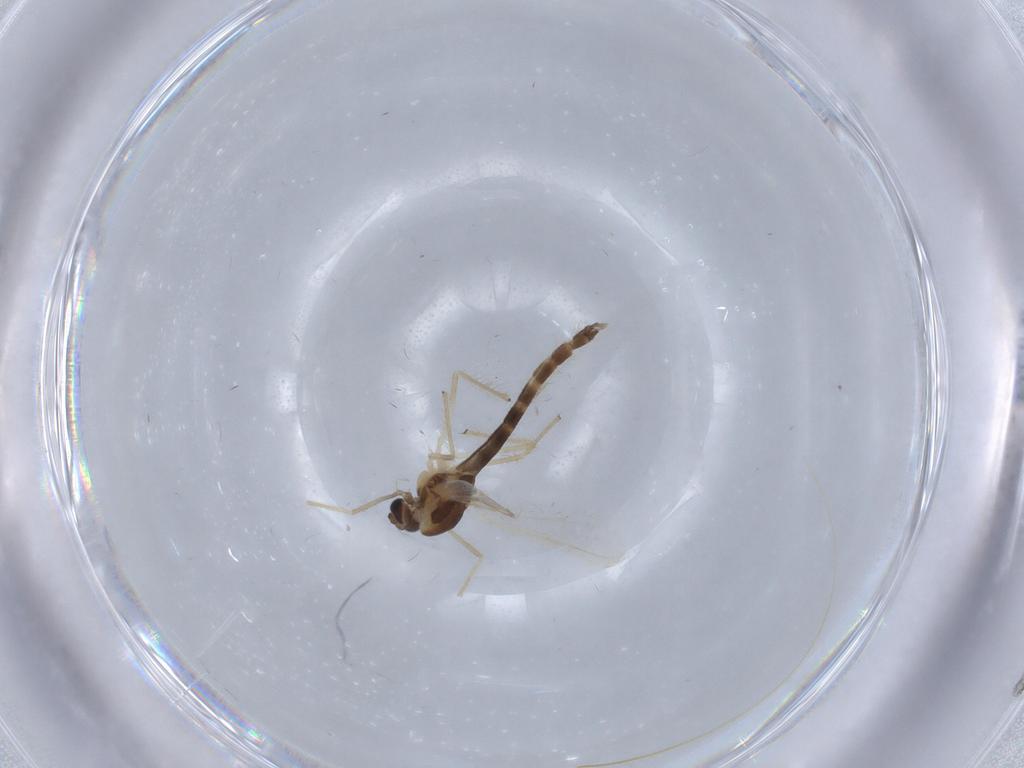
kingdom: Animalia
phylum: Arthropoda
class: Insecta
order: Diptera
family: Chironomidae
